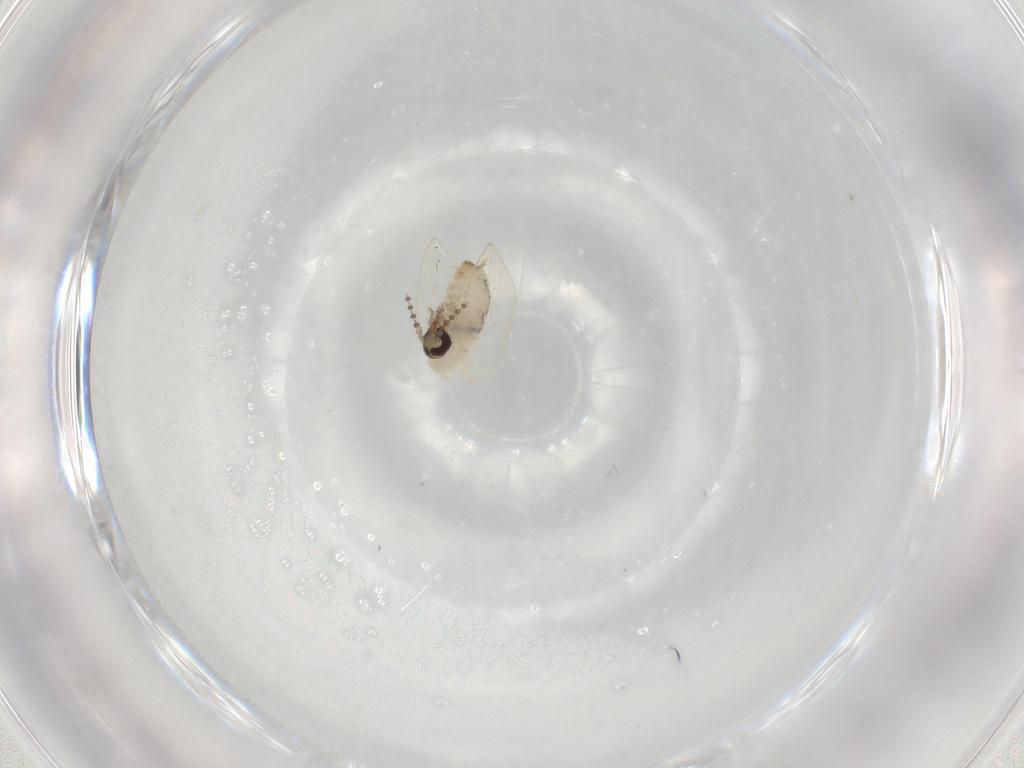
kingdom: Animalia
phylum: Arthropoda
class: Insecta
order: Diptera
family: Psychodidae
